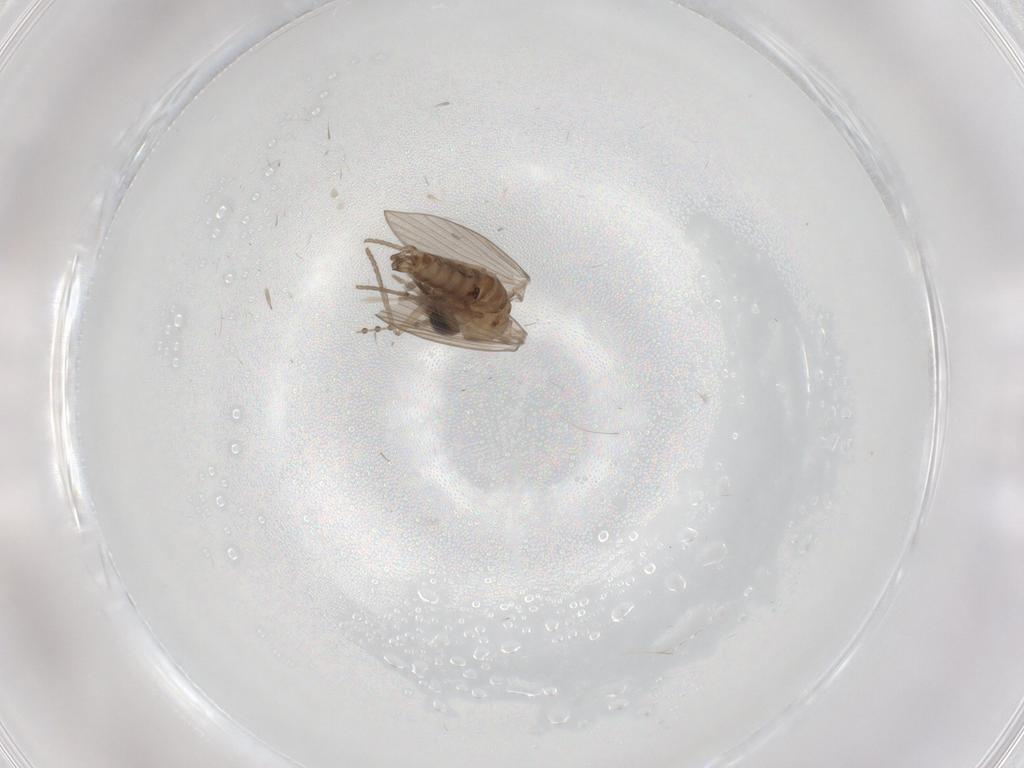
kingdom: Animalia
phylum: Arthropoda
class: Insecta
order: Diptera
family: Psychodidae
